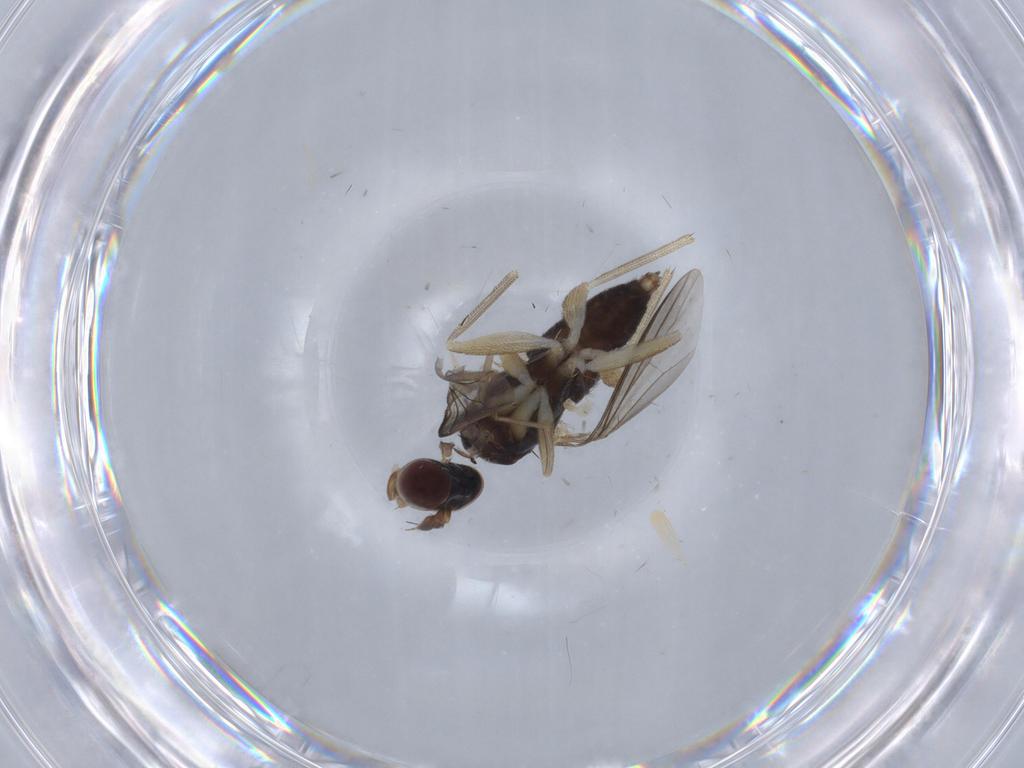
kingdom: Animalia
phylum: Arthropoda
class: Insecta
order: Diptera
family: Dolichopodidae
